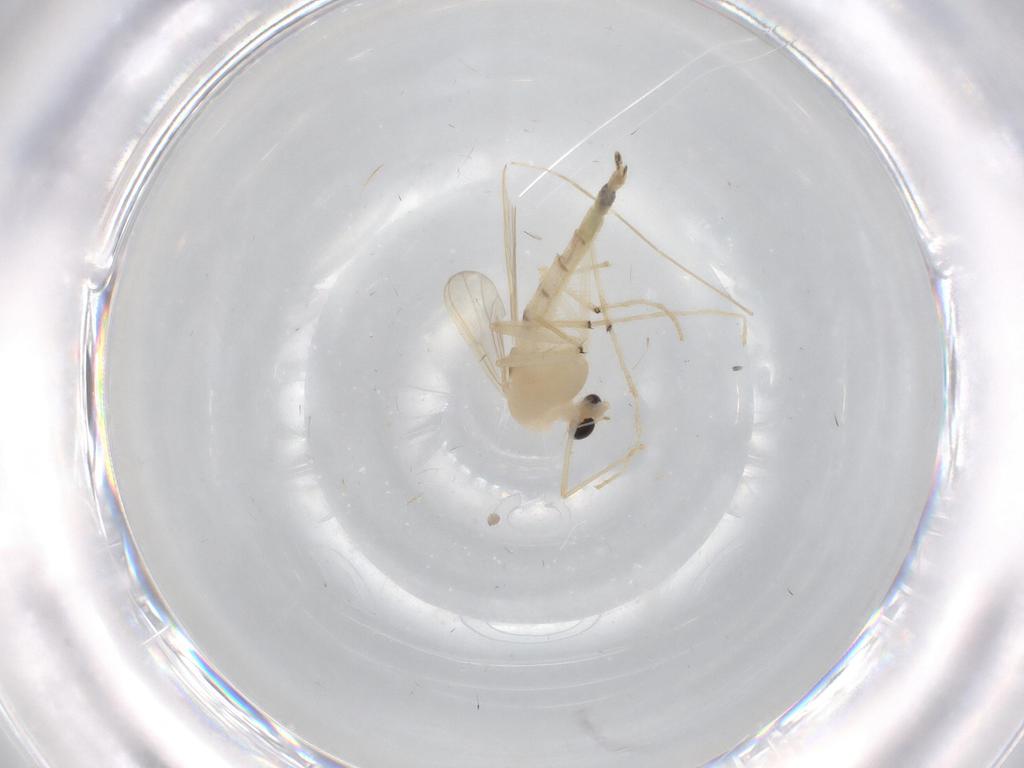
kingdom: Animalia
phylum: Arthropoda
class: Insecta
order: Diptera
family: Chironomidae
